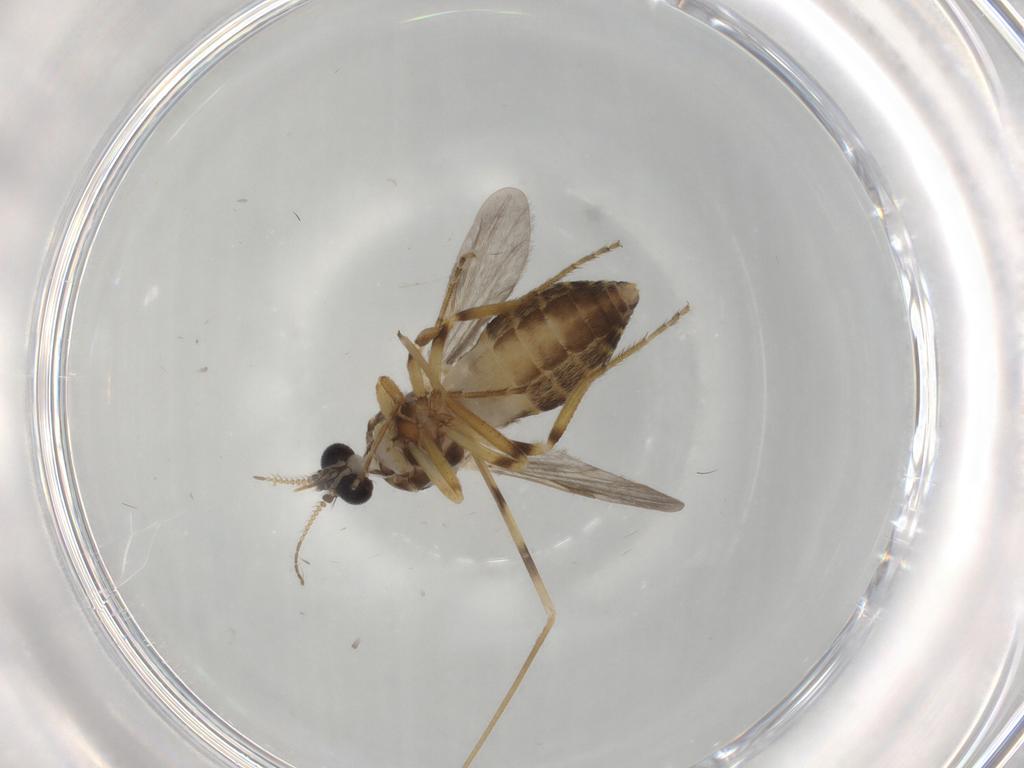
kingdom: Animalia
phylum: Arthropoda
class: Insecta
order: Diptera
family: Ceratopogonidae
